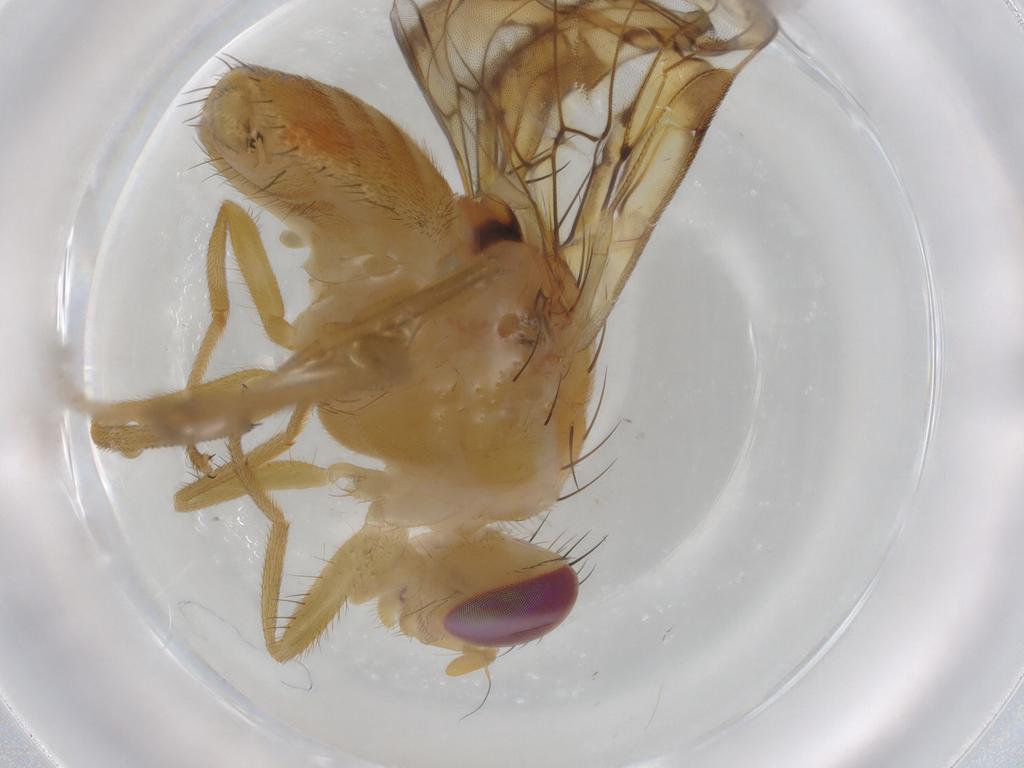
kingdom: Animalia
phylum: Arthropoda
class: Insecta
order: Diptera
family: Tephritidae
